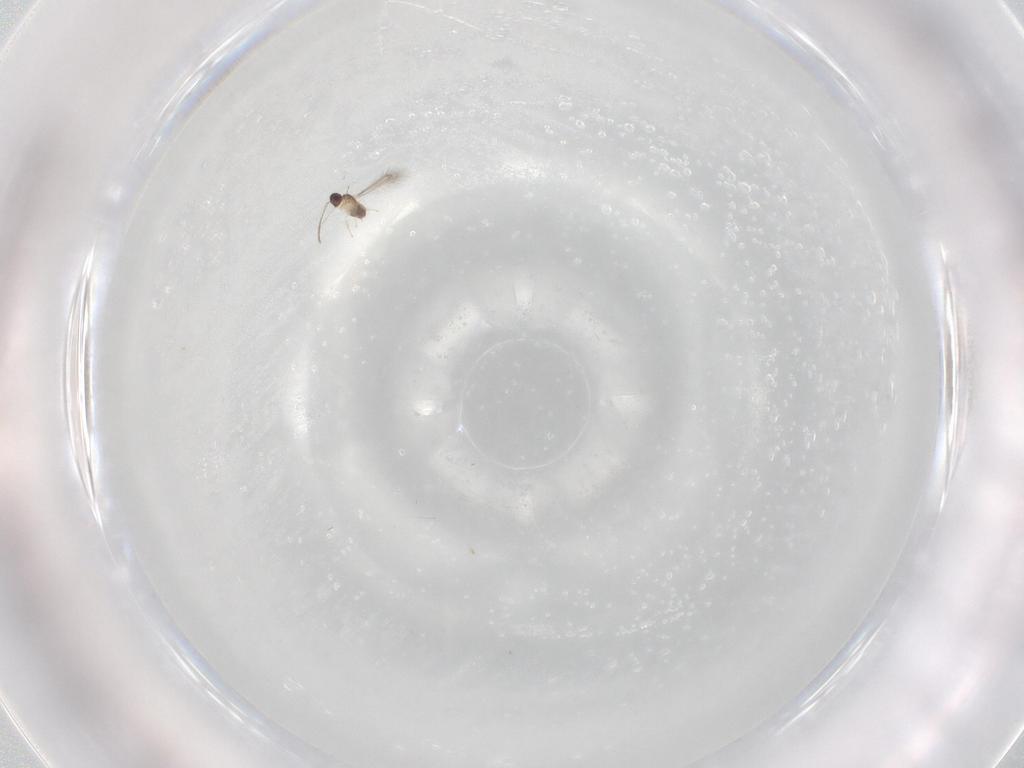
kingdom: Animalia
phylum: Arthropoda
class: Insecta
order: Hymenoptera
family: Mymaridae
